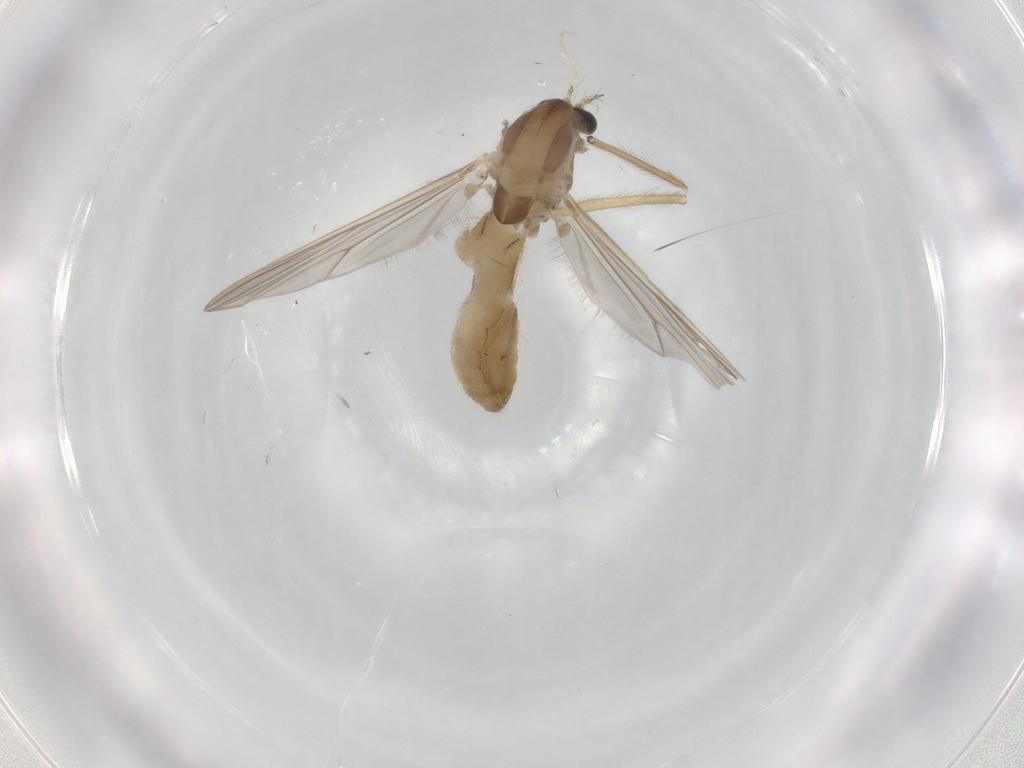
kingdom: Animalia
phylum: Arthropoda
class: Insecta
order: Diptera
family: Chironomidae
